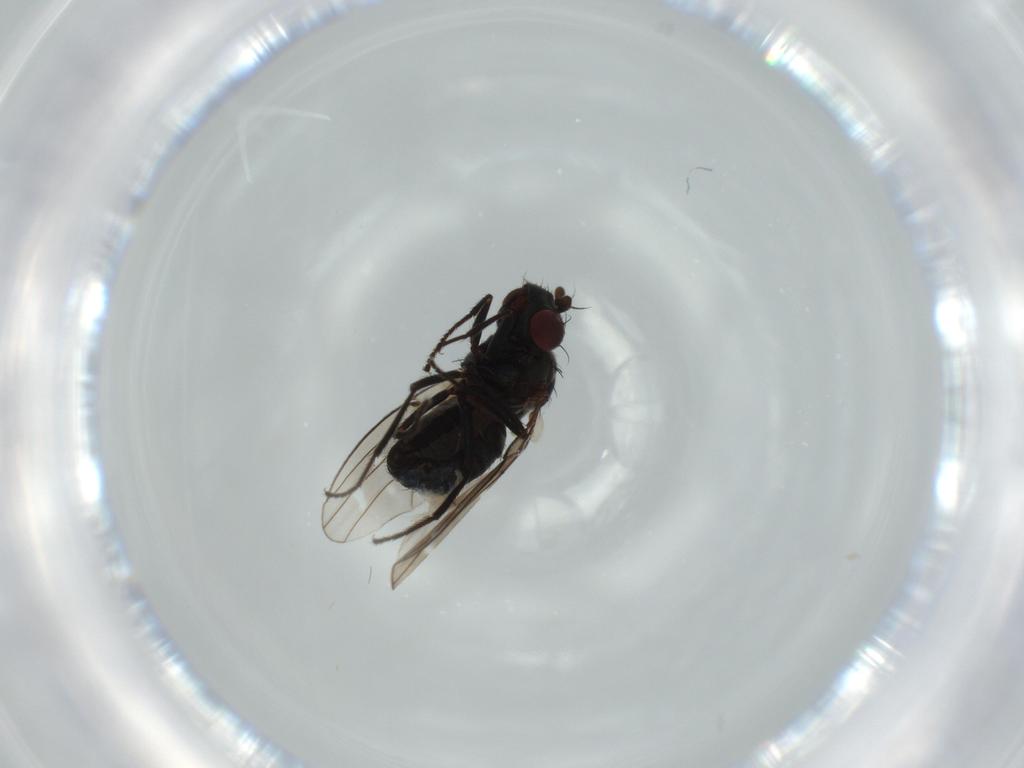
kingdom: Animalia
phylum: Arthropoda
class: Insecta
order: Diptera
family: Ephydridae
